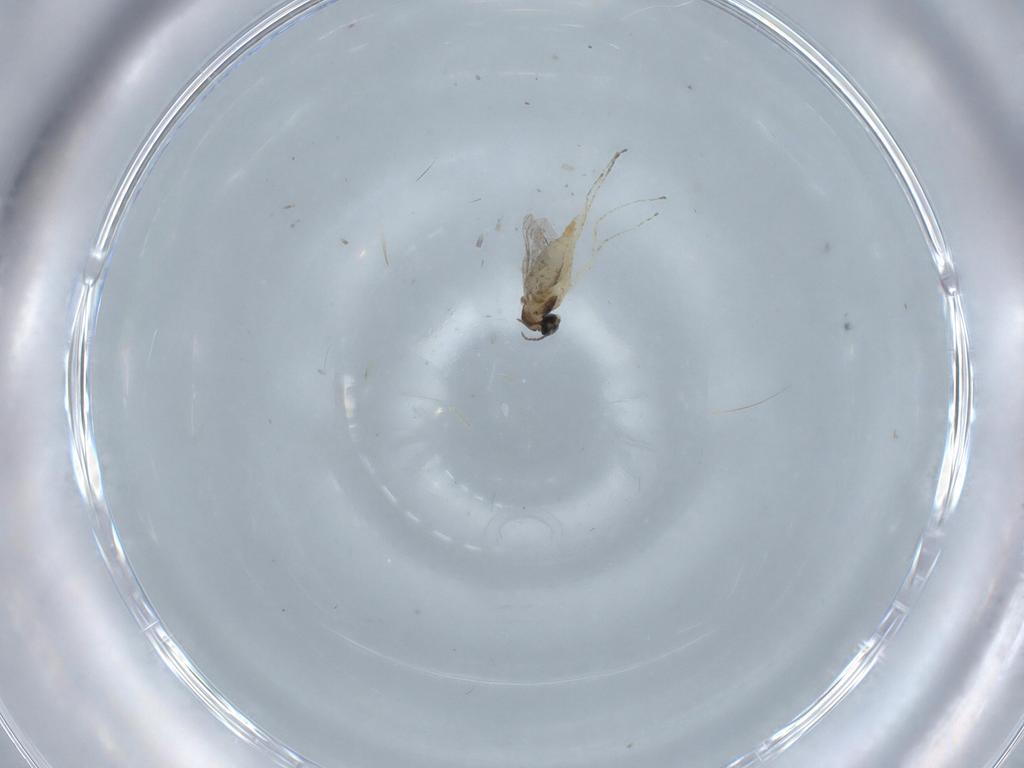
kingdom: Animalia
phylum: Arthropoda
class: Insecta
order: Diptera
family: Cecidomyiidae
